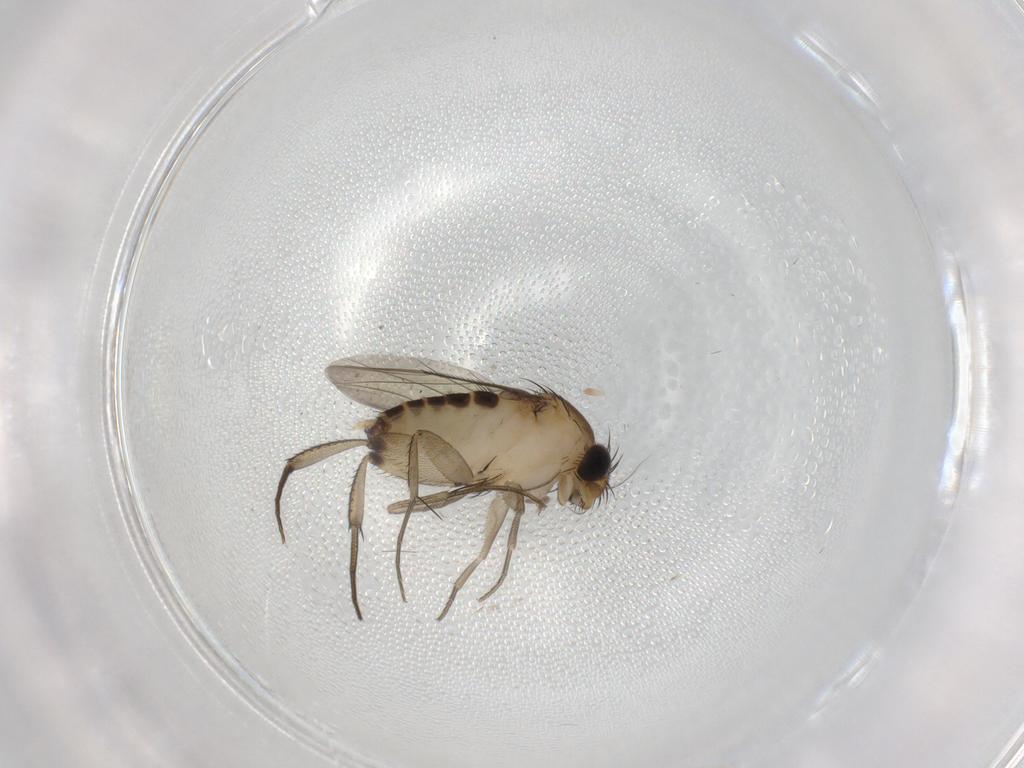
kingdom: Animalia
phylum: Arthropoda
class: Insecta
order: Diptera
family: Phoridae
